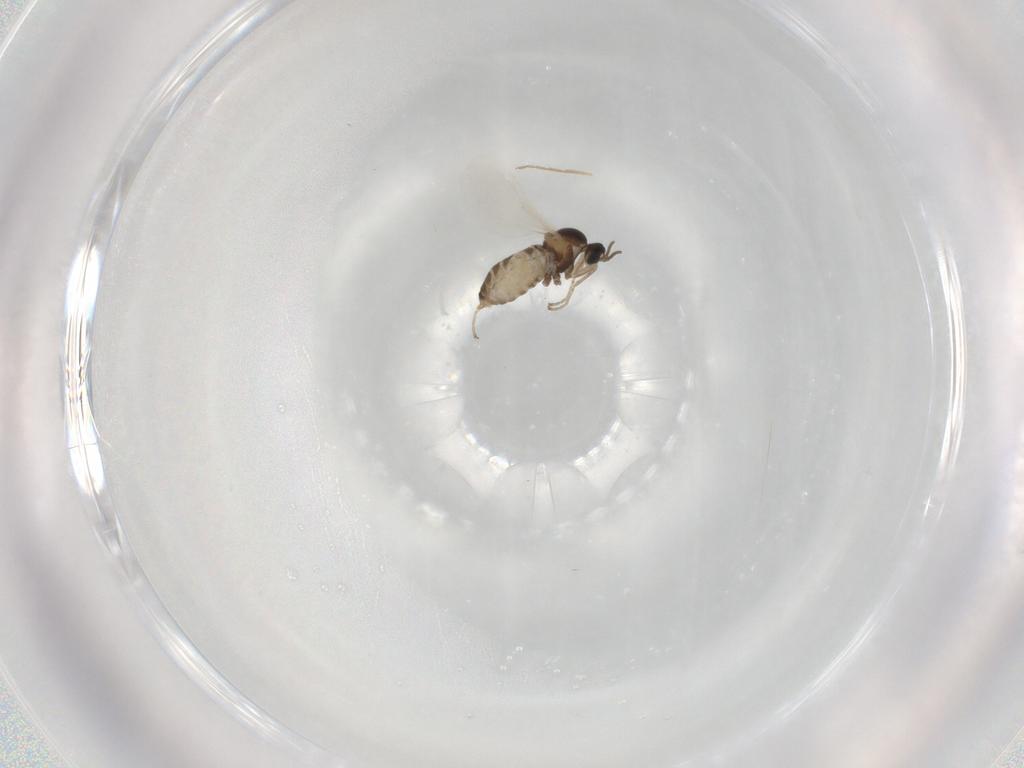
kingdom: Animalia
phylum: Arthropoda
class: Insecta
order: Diptera
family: Cecidomyiidae
